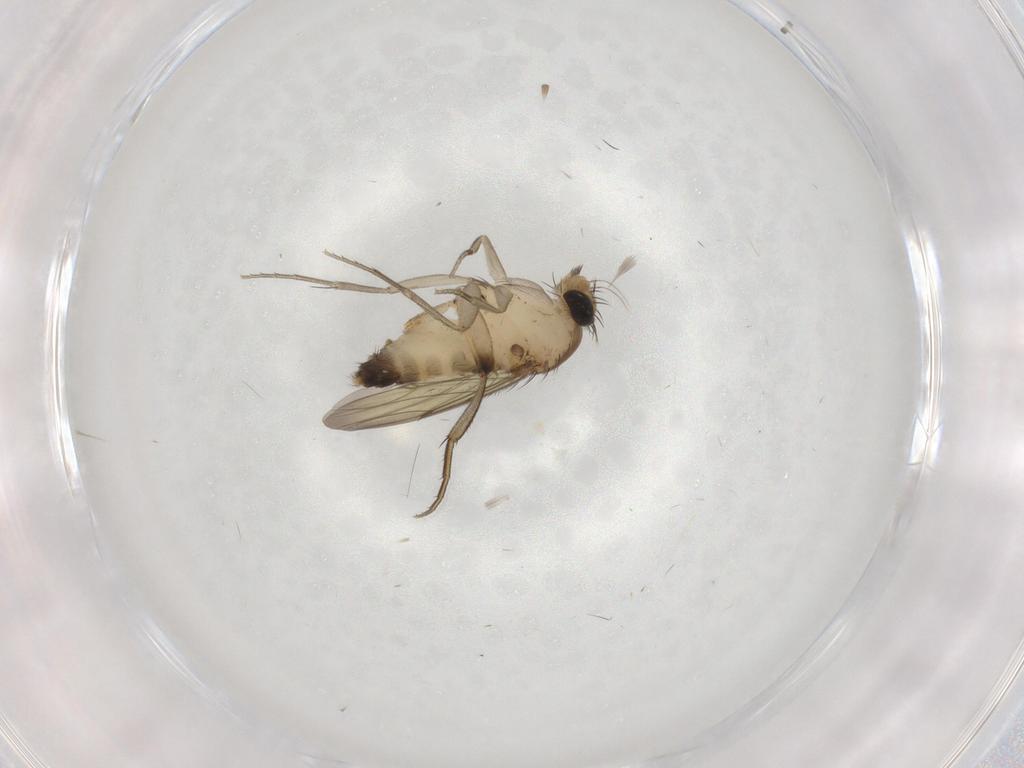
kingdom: Animalia
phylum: Arthropoda
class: Insecta
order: Diptera
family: Phoridae
